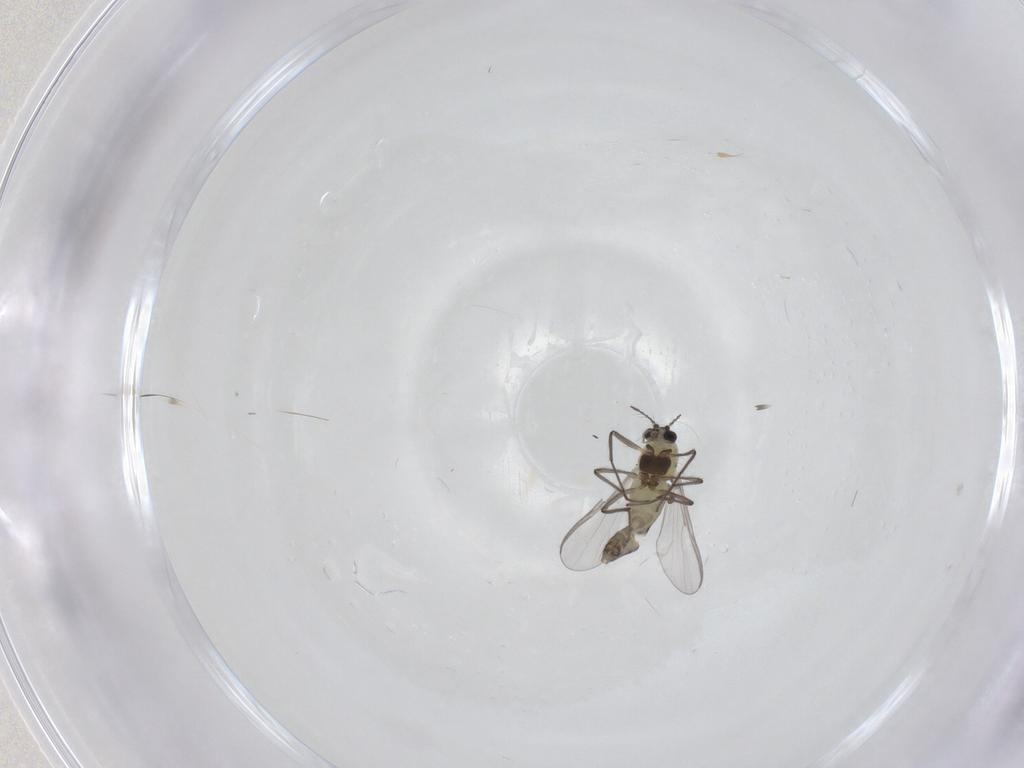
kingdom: Animalia
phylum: Arthropoda
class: Insecta
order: Diptera
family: Chironomidae
